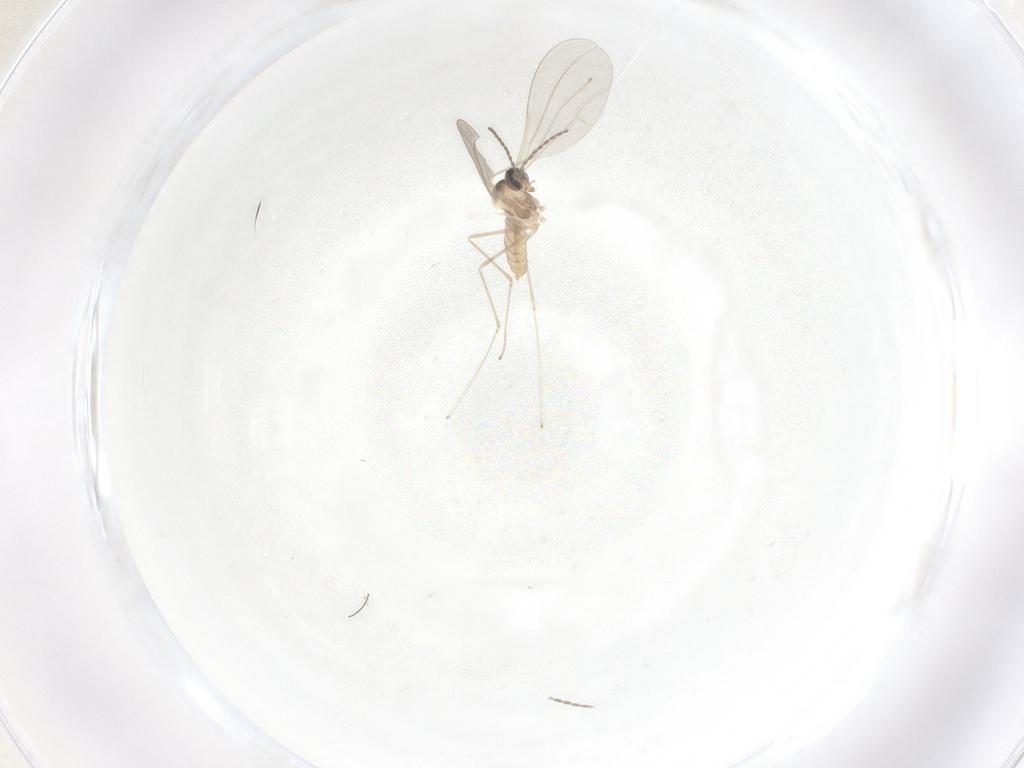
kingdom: Animalia
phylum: Arthropoda
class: Insecta
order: Diptera
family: Cecidomyiidae
